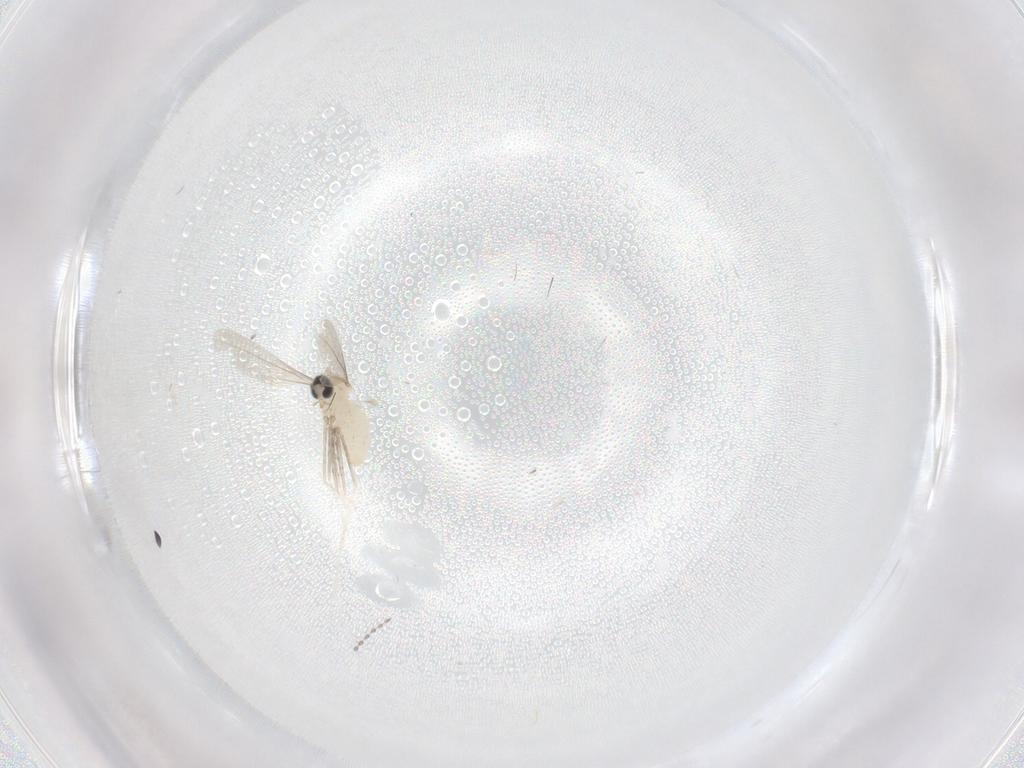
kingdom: Animalia
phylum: Arthropoda
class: Insecta
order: Diptera
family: Cecidomyiidae
